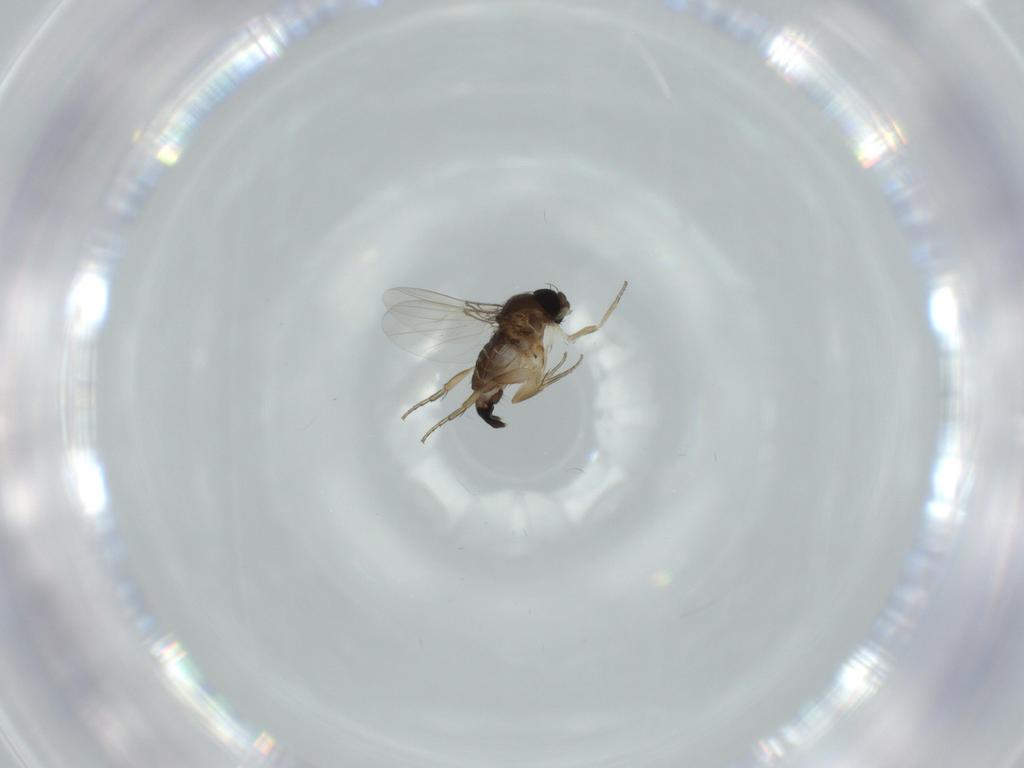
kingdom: Animalia
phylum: Arthropoda
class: Insecta
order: Diptera
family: Phoridae
